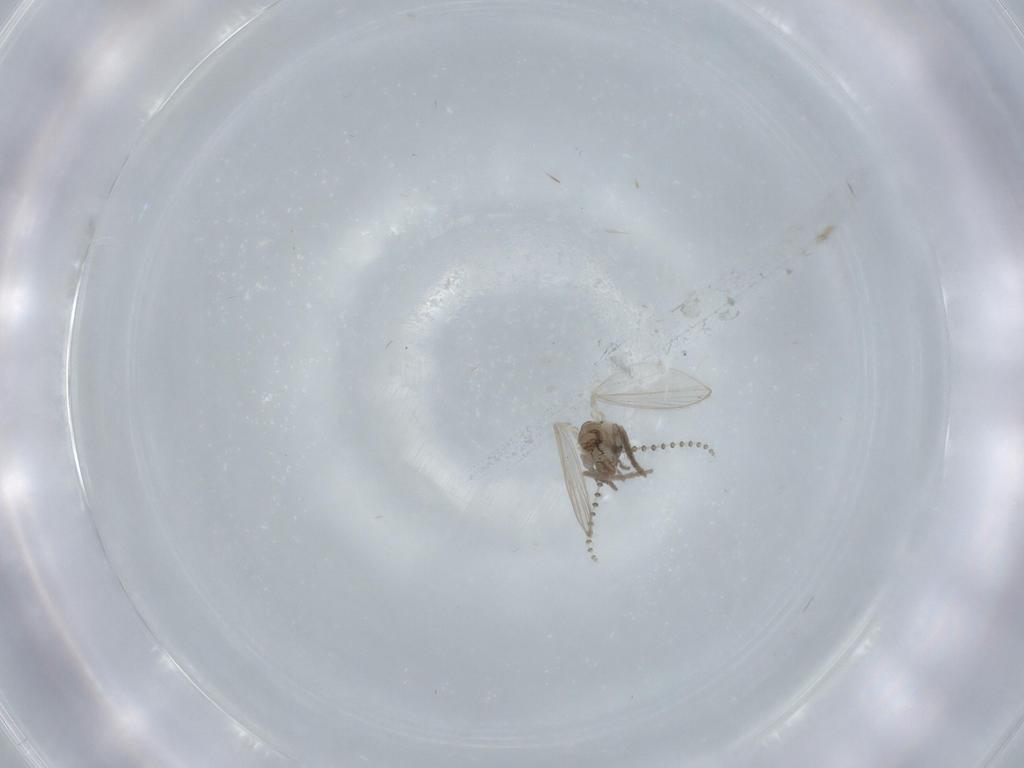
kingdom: Animalia
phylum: Arthropoda
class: Insecta
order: Diptera
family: Psychodidae
